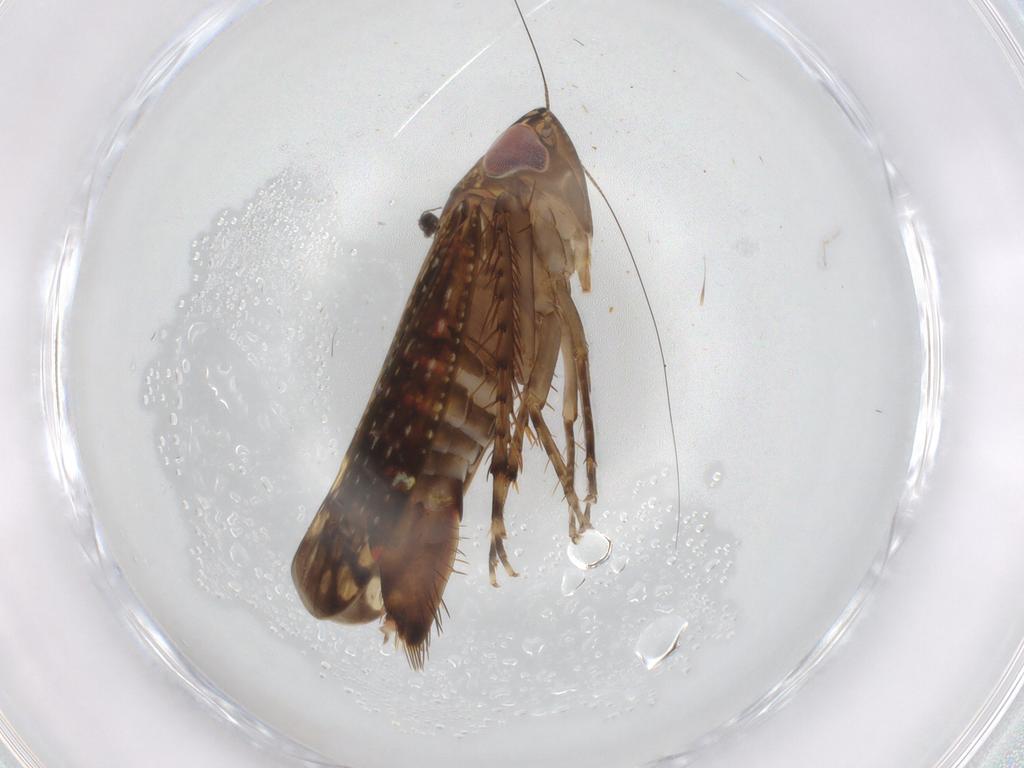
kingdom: Animalia
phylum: Arthropoda
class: Insecta
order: Hemiptera
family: Cicadellidae
